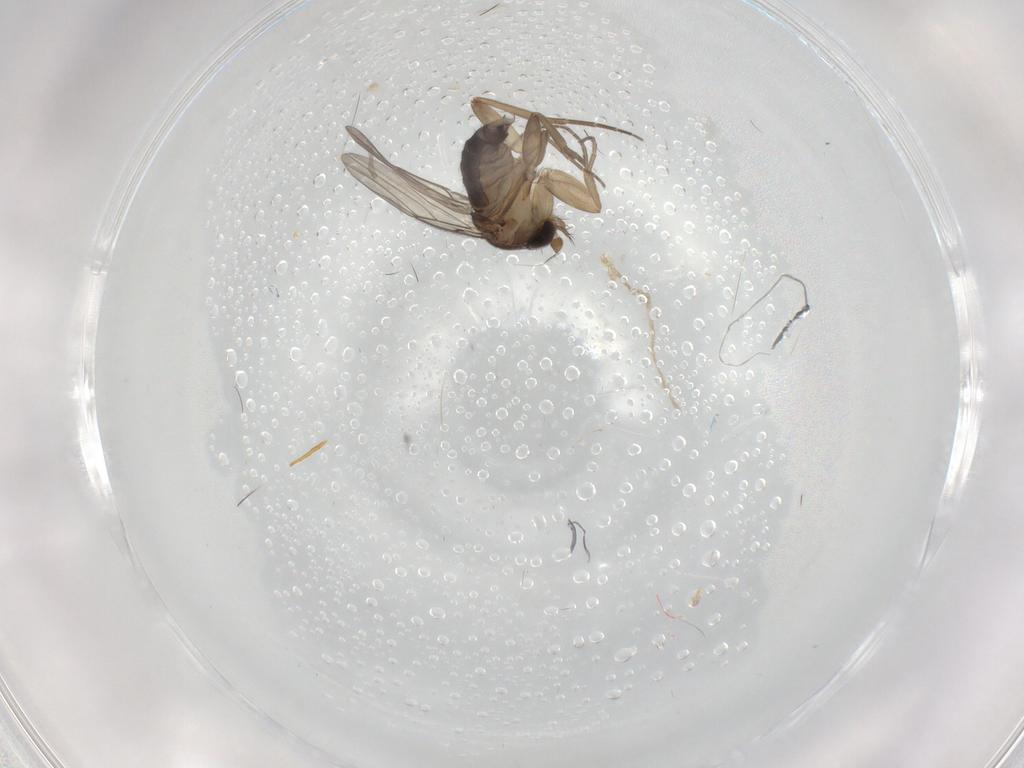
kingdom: Animalia
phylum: Arthropoda
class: Insecta
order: Diptera
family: Phoridae
